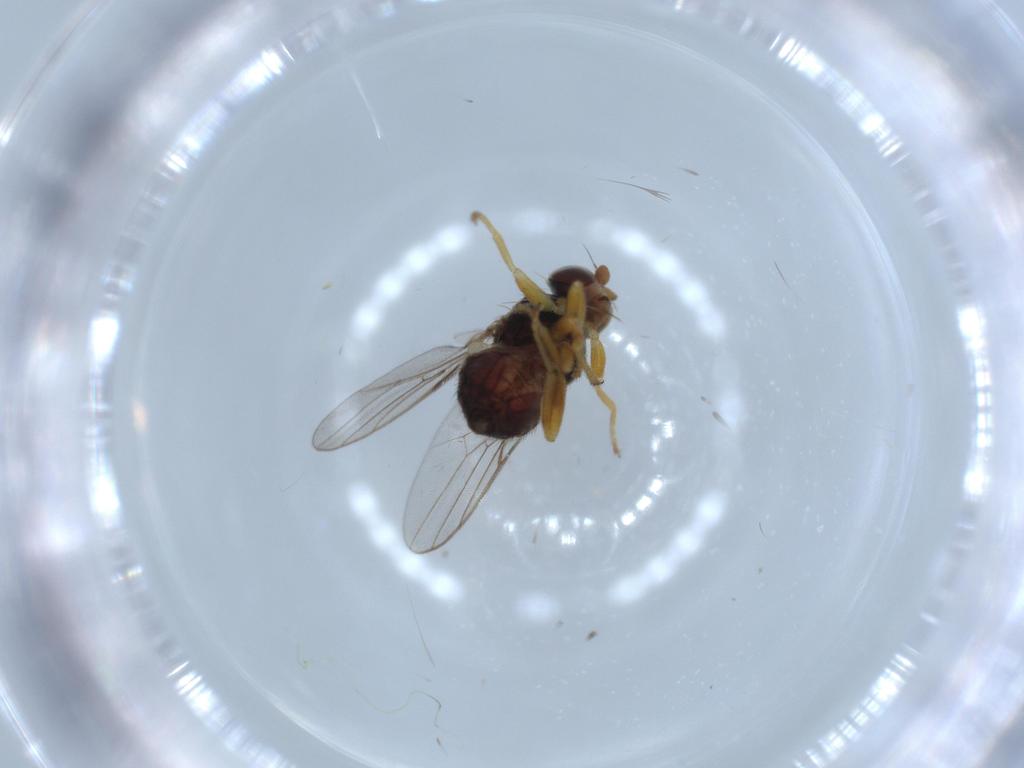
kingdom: Animalia
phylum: Arthropoda
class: Insecta
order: Diptera
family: Chloropidae
